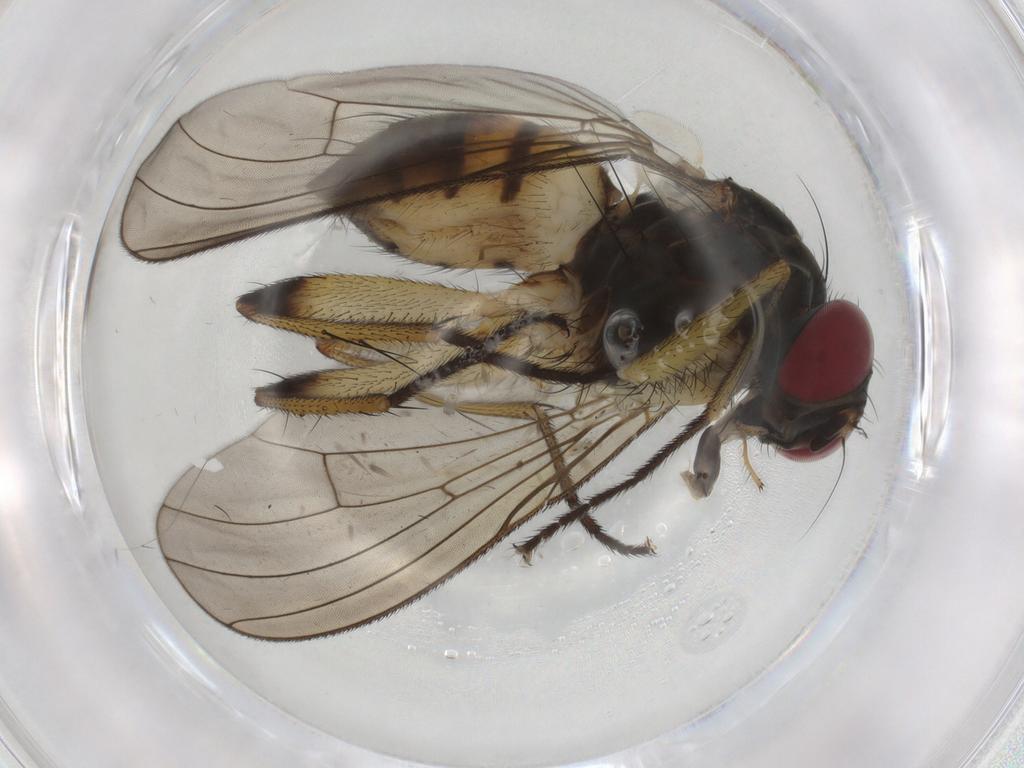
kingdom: Animalia
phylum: Arthropoda
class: Insecta
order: Diptera
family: Muscidae
